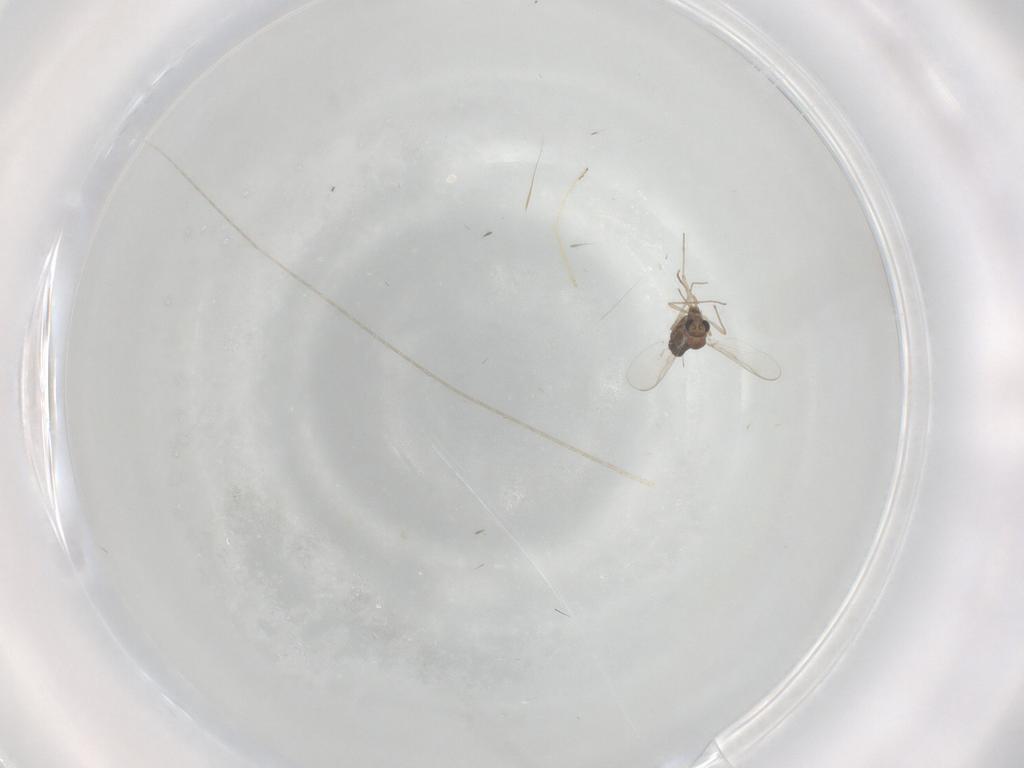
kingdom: Animalia
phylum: Arthropoda
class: Insecta
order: Diptera
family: Chironomidae
